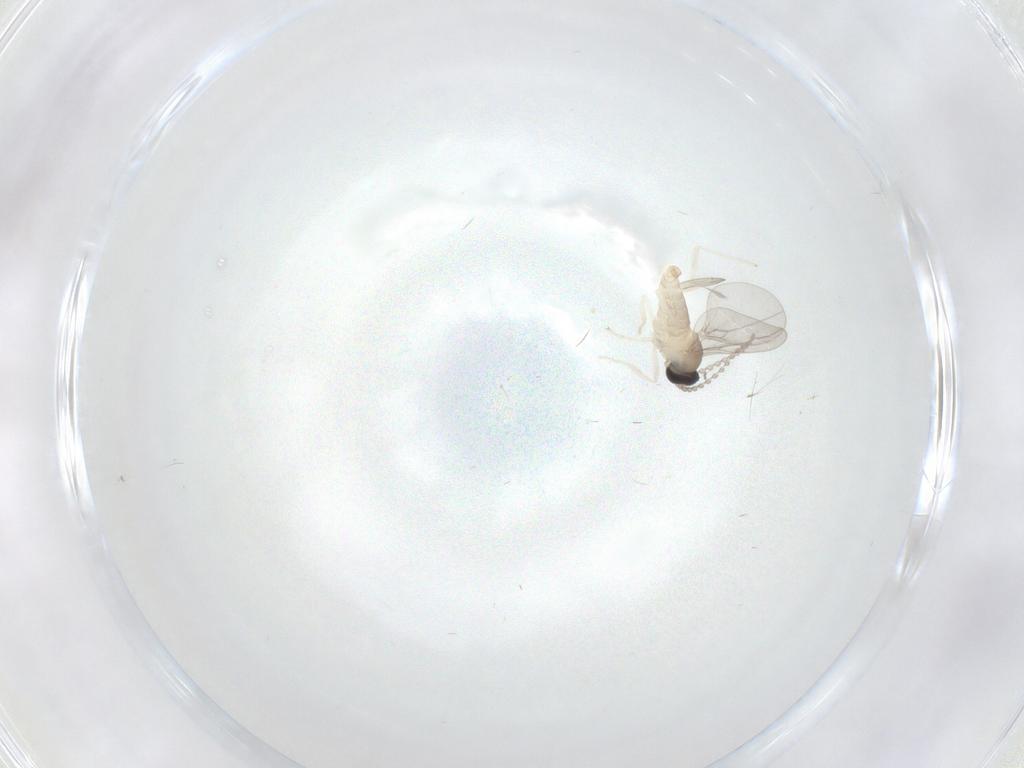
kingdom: Animalia
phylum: Arthropoda
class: Insecta
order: Diptera
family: Cecidomyiidae
